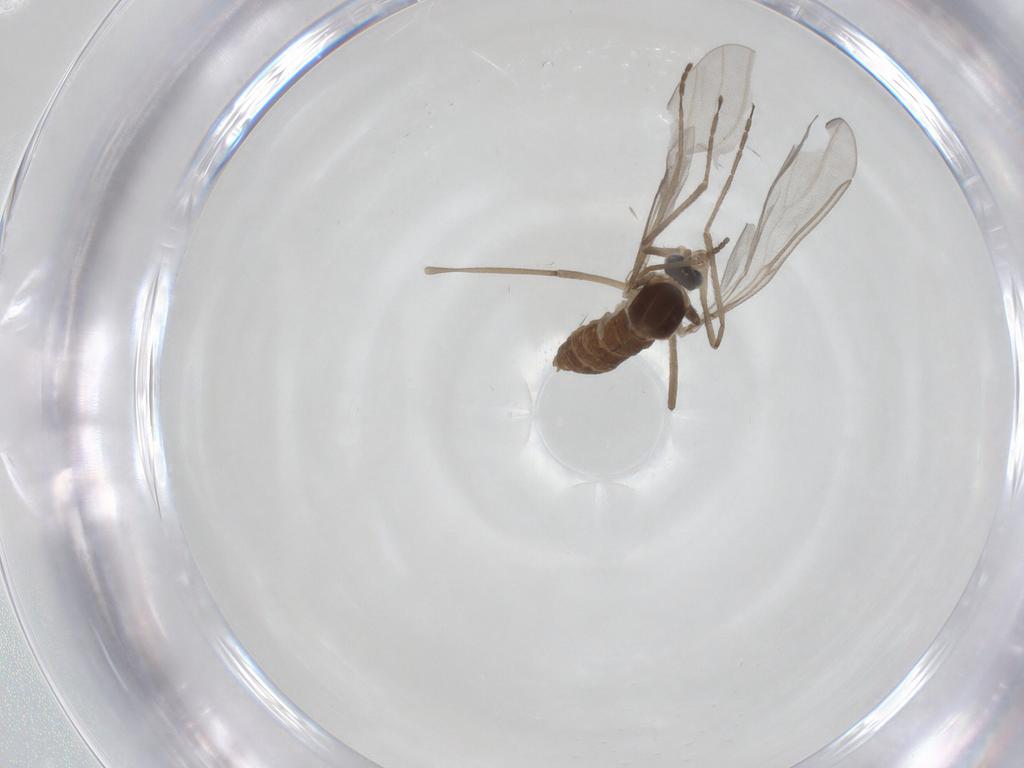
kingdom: Animalia
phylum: Arthropoda
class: Insecta
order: Diptera
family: Cecidomyiidae
